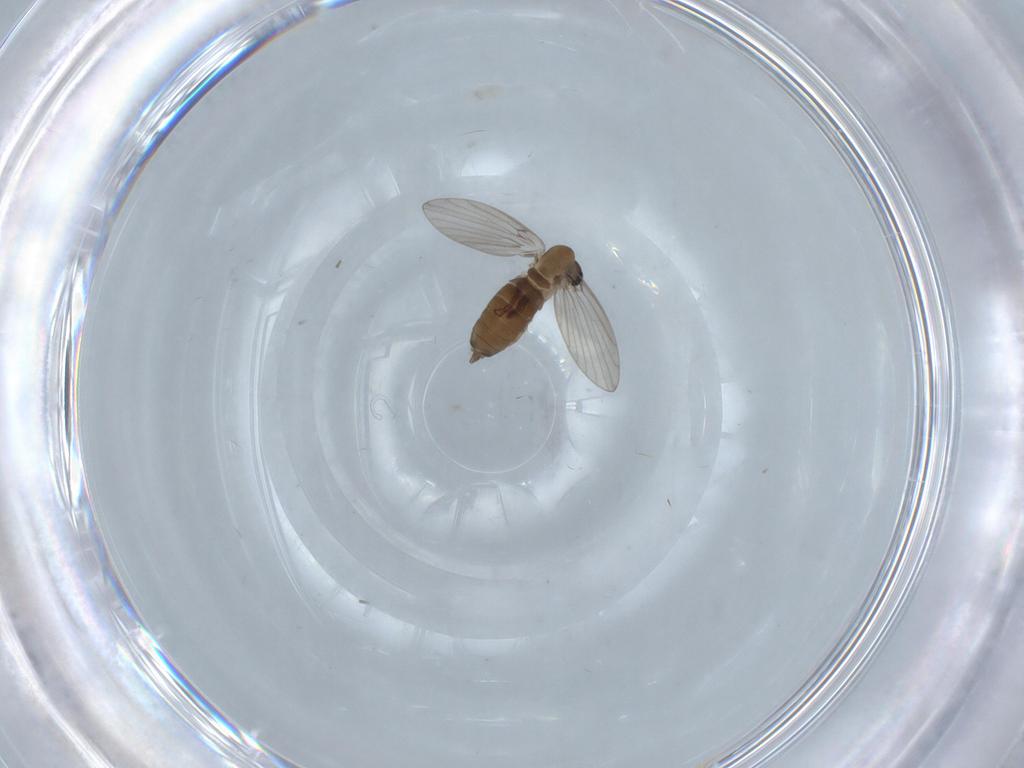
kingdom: Animalia
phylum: Arthropoda
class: Insecta
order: Diptera
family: Psychodidae
